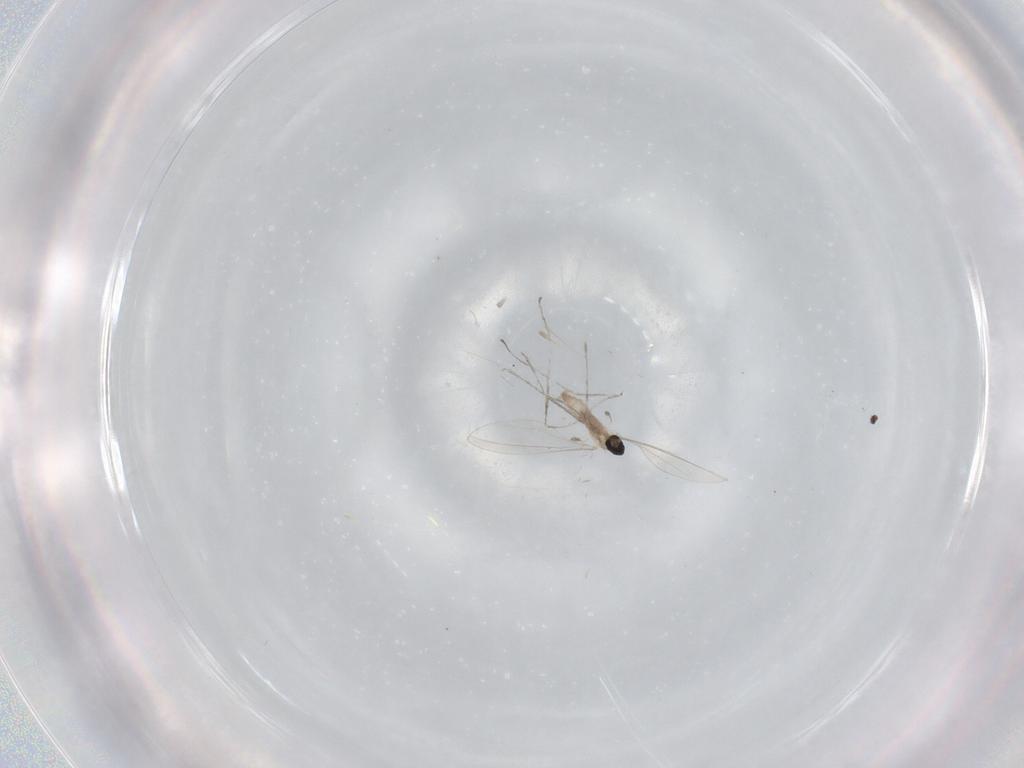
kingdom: Animalia
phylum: Arthropoda
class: Insecta
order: Diptera
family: Cecidomyiidae
